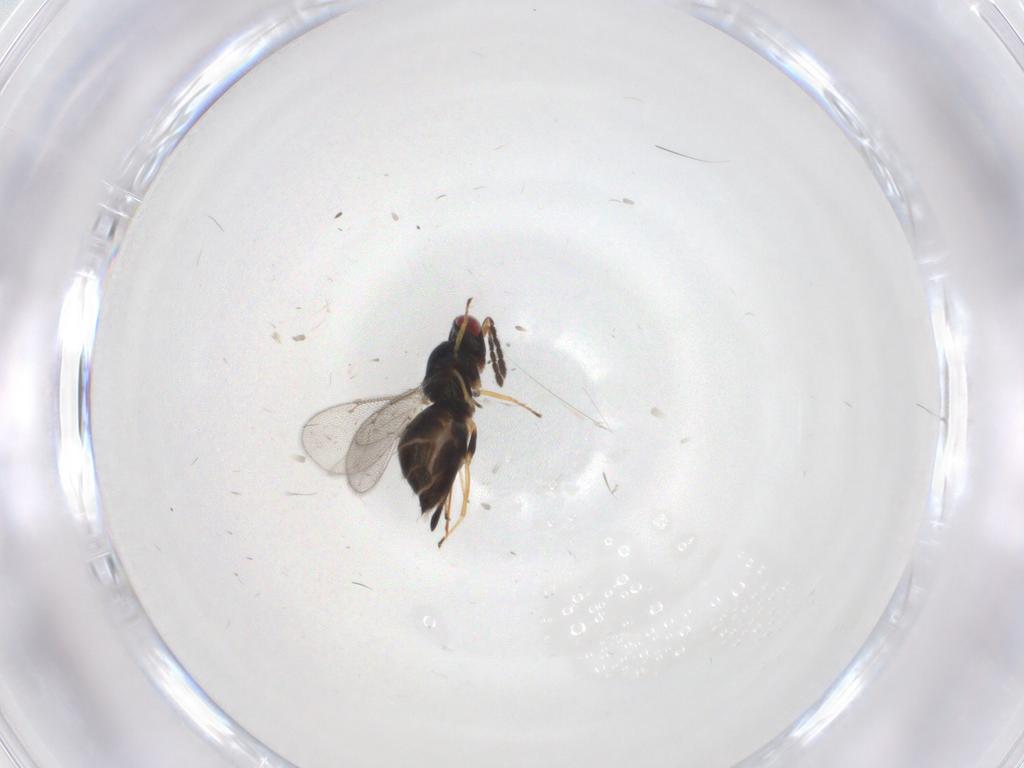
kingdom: Animalia
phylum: Arthropoda
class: Insecta
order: Hymenoptera
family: Eulophidae
